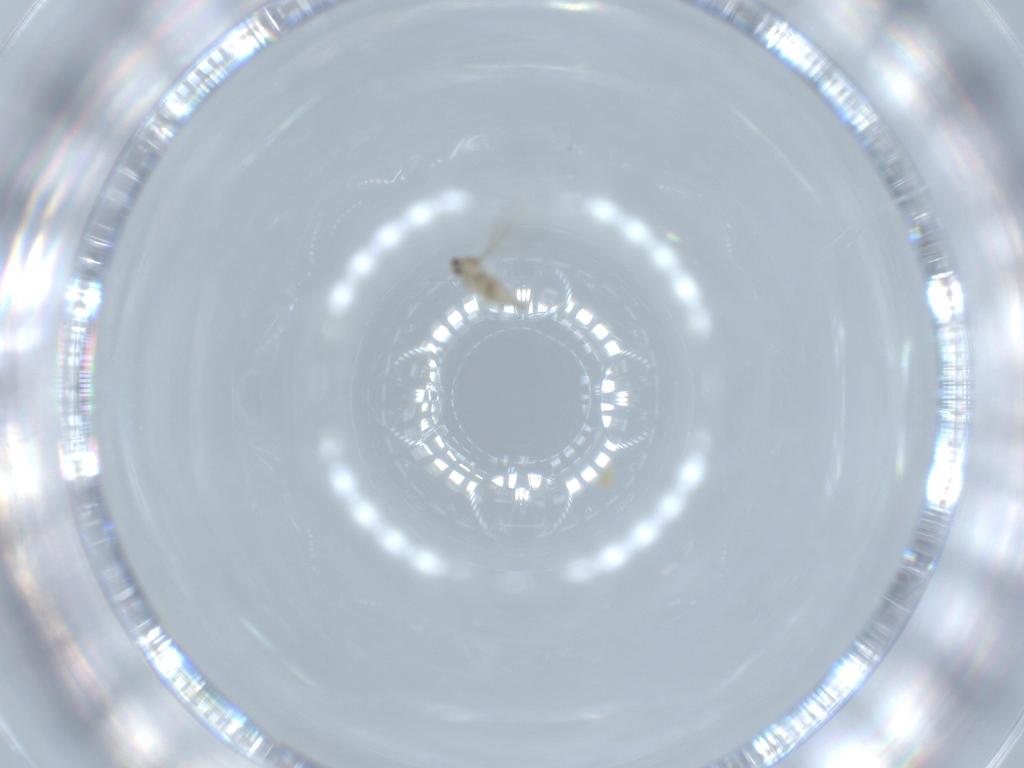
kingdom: Animalia
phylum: Arthropoda
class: Insecta
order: Diptera
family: Cecidomyiidae
